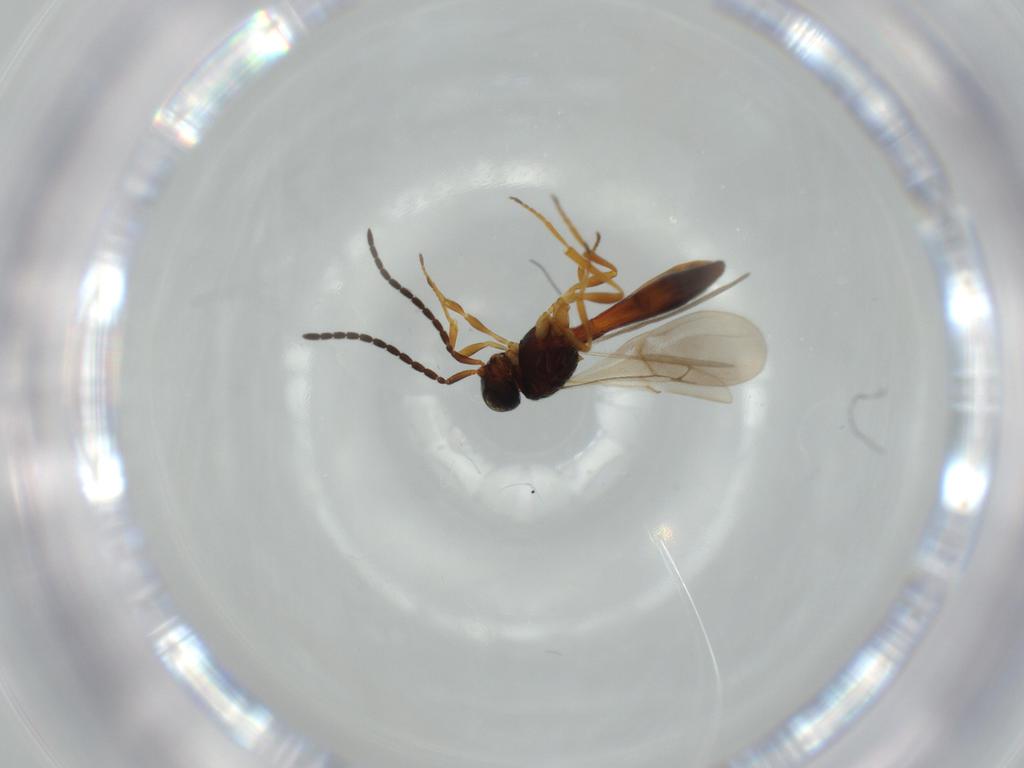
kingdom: Animalia
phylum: Arthropoda
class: Insecta
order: Hymenoptera
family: Scelionidae
